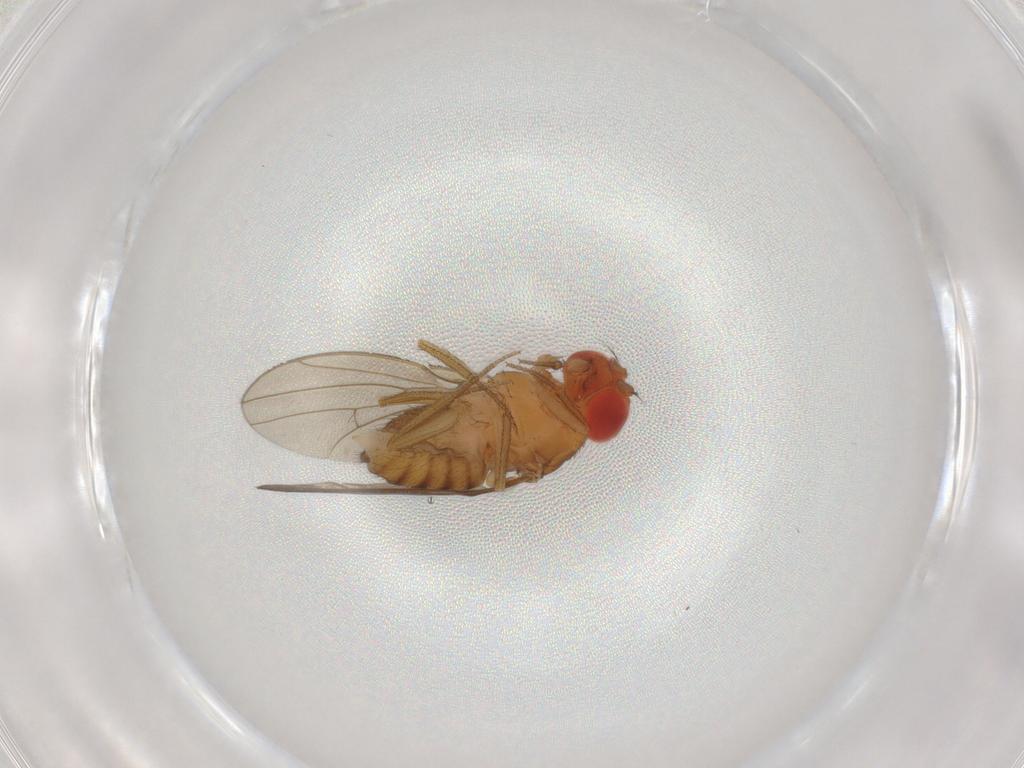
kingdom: Animalia
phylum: Arthropoda
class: Insecta
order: Diptera
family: Drosophilidae
